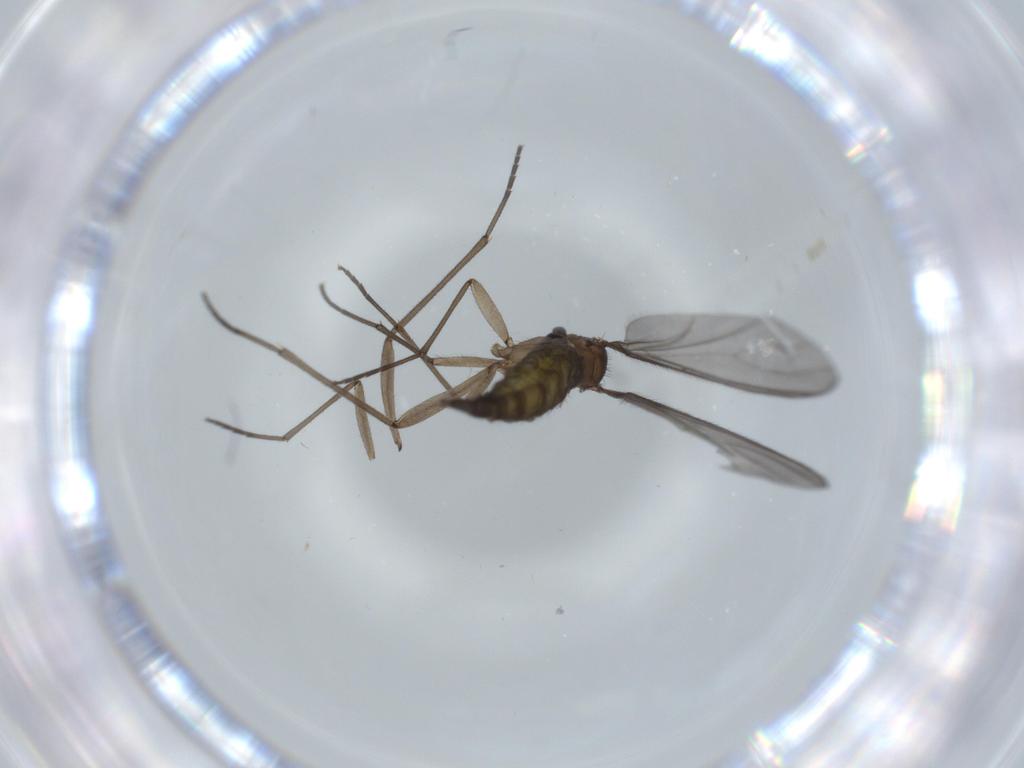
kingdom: Animalia
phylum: Arthropoda
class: Insecta
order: Diptera
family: Sciaridae
